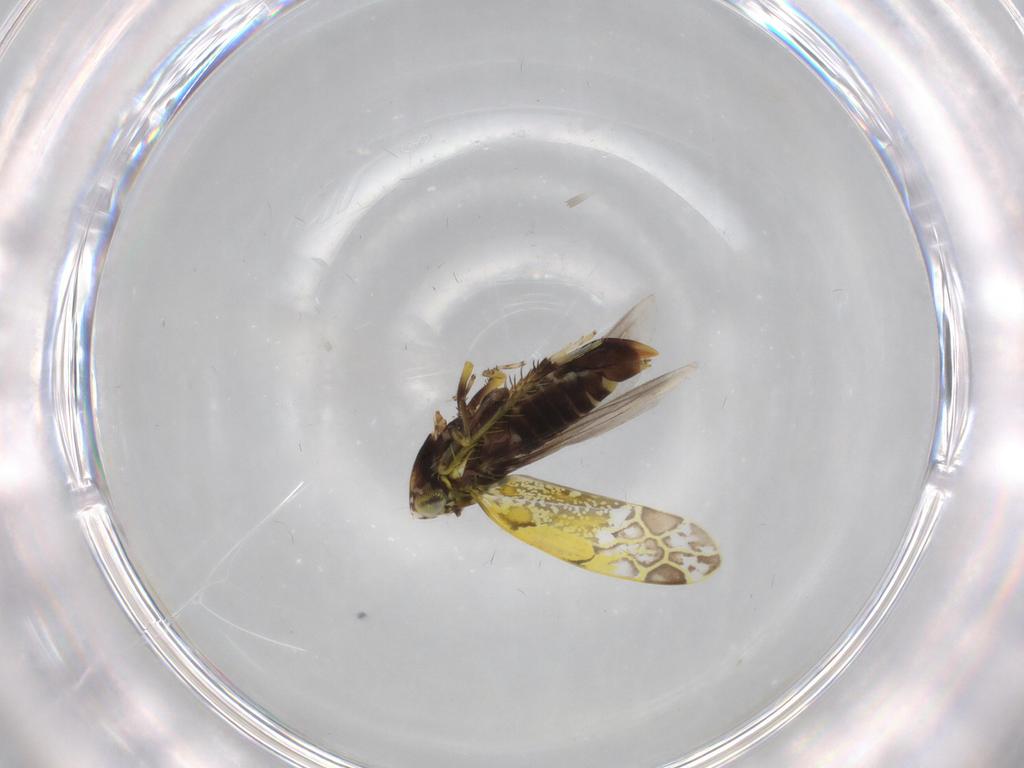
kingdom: Animalia
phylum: Arthropoda
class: Insecta
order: Hemiptera
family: Cicadellidae
